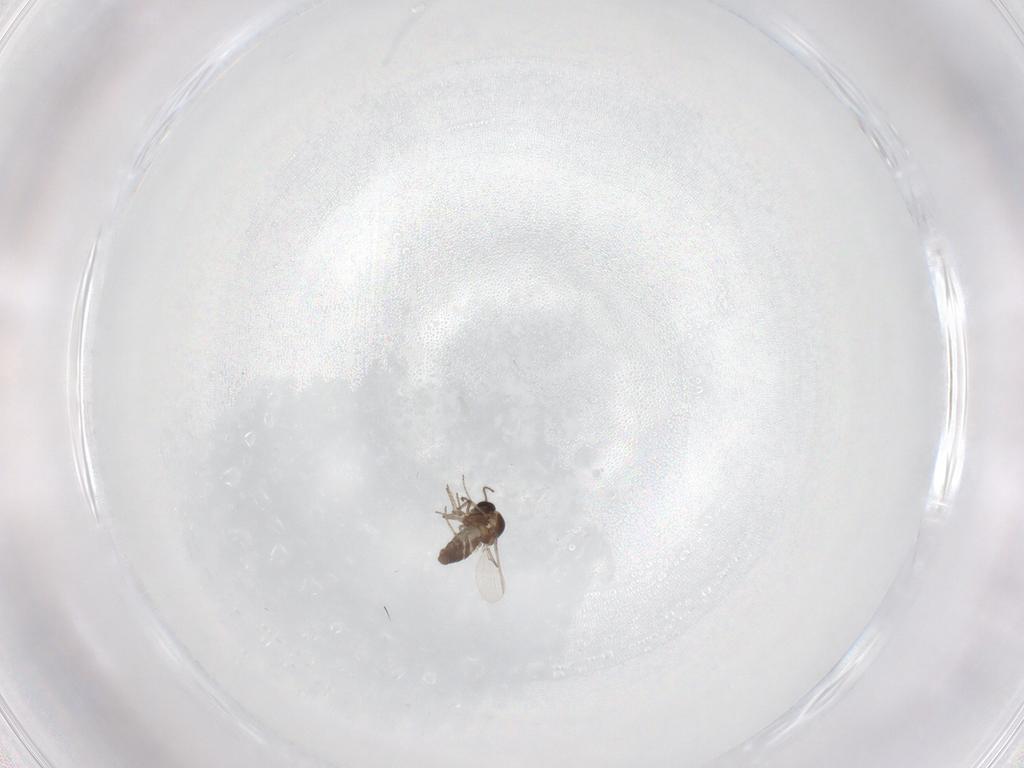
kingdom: Animalia
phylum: Arthropoda
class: Insecta
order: Diptera
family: Ceratopogonidae
